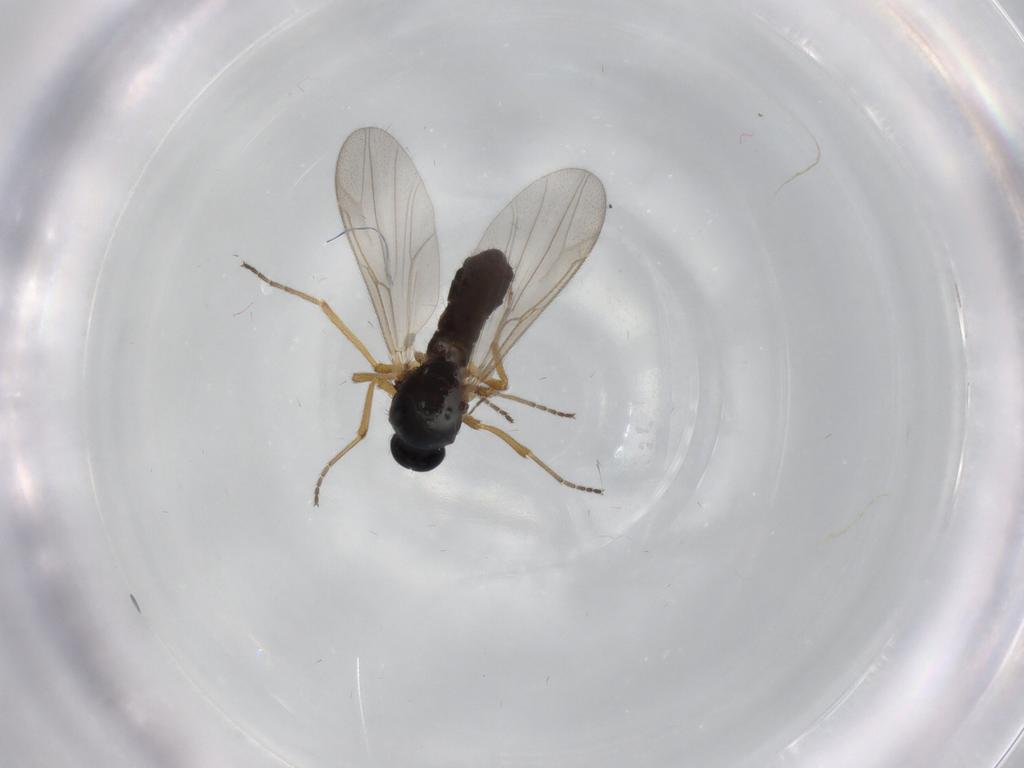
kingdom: Animalia
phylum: Arthropoda
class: Insecta
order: Diptera
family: Ceratopogonidae
